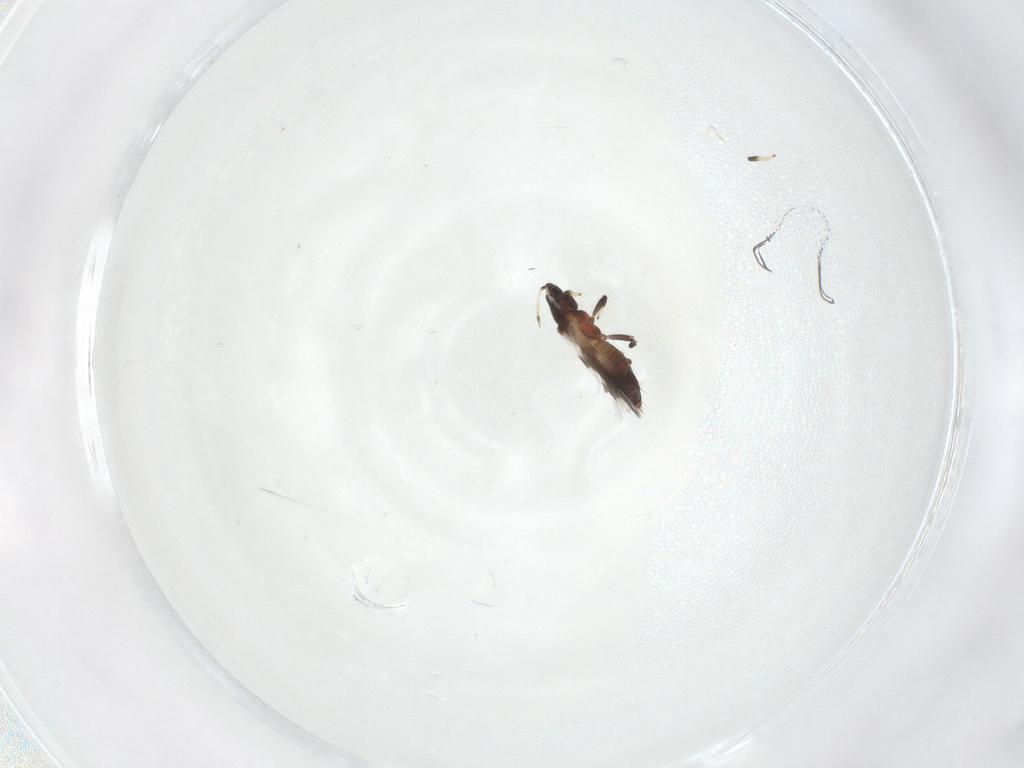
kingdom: Animalia
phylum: Arthropoda
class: Insecta
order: Thysanoptera
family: Aeolothripidae
